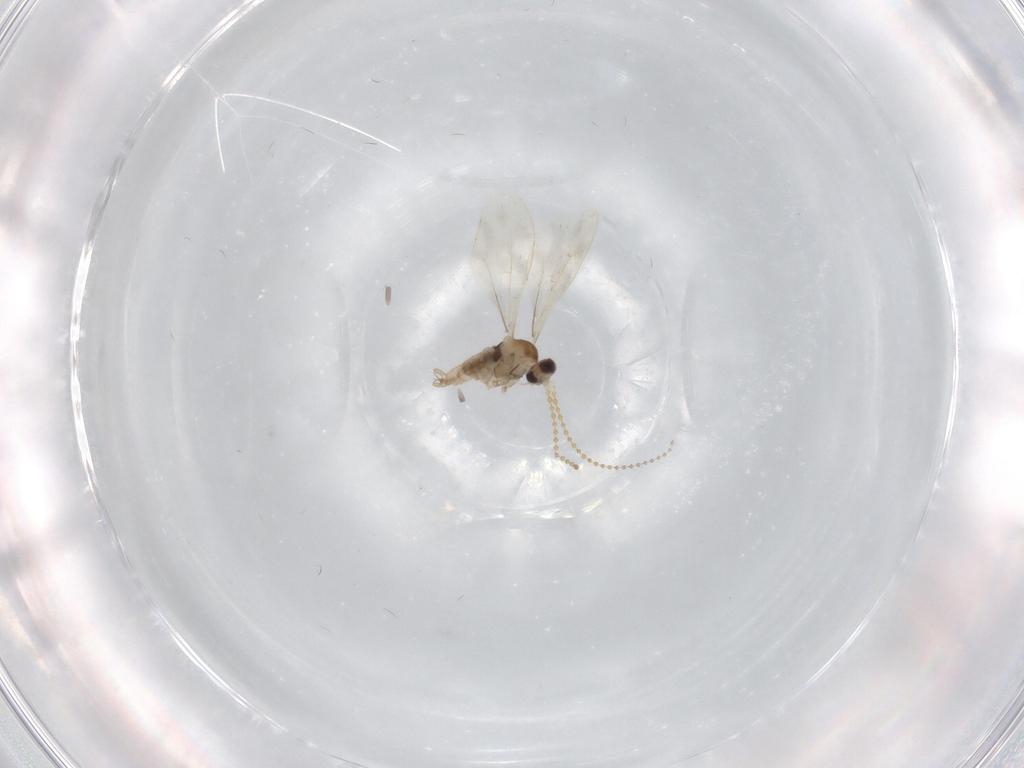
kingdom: Animalia
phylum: Arthropoda
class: Insecta
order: Diptera
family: Cecidomyiidae
